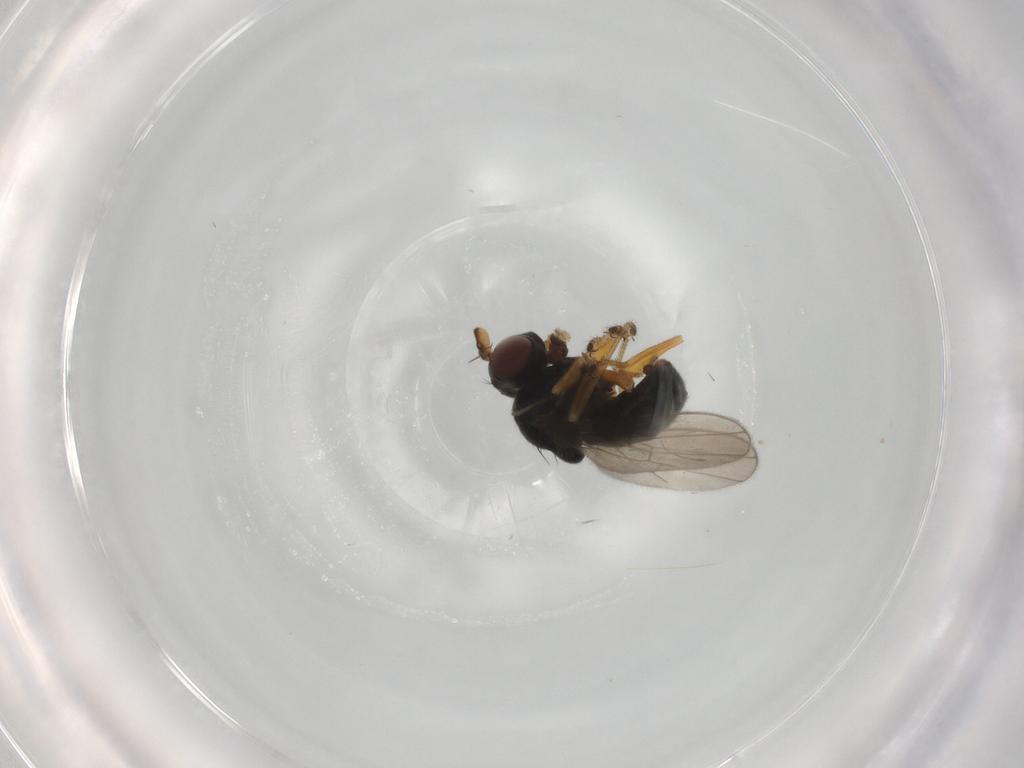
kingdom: Animalia
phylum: Arthropoda
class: Insecta
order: Diptera
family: Ephydridae
